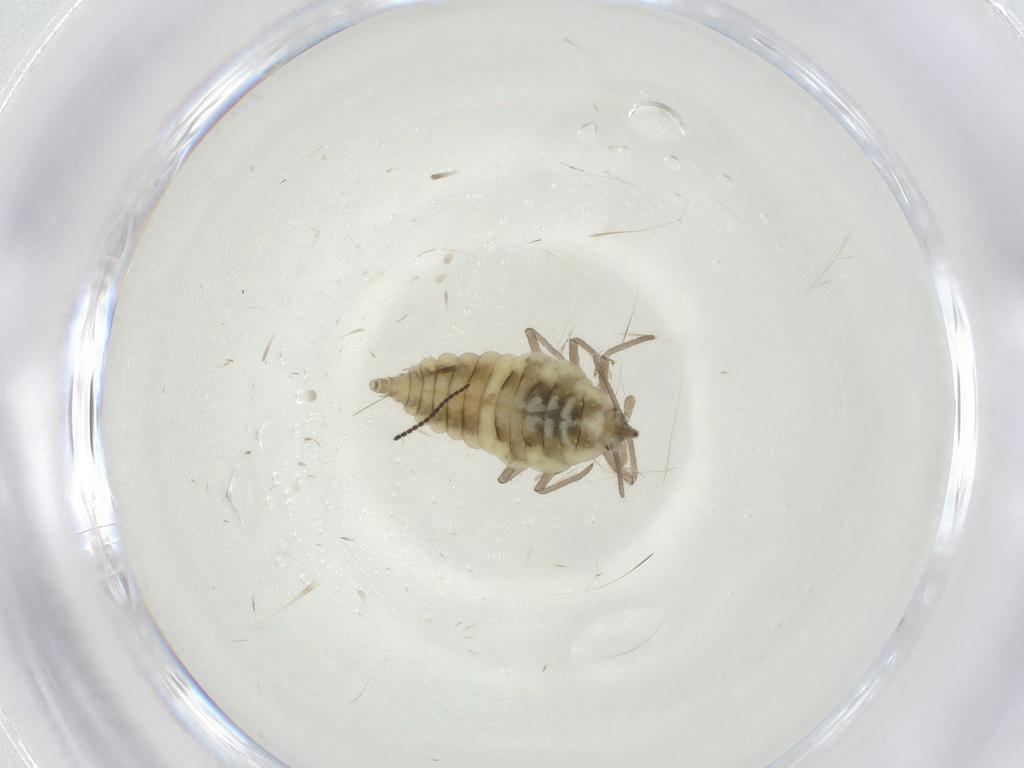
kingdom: Animalia
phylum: Arthropoda
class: Insecta
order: Neuroptera
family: Coniopterygidae
